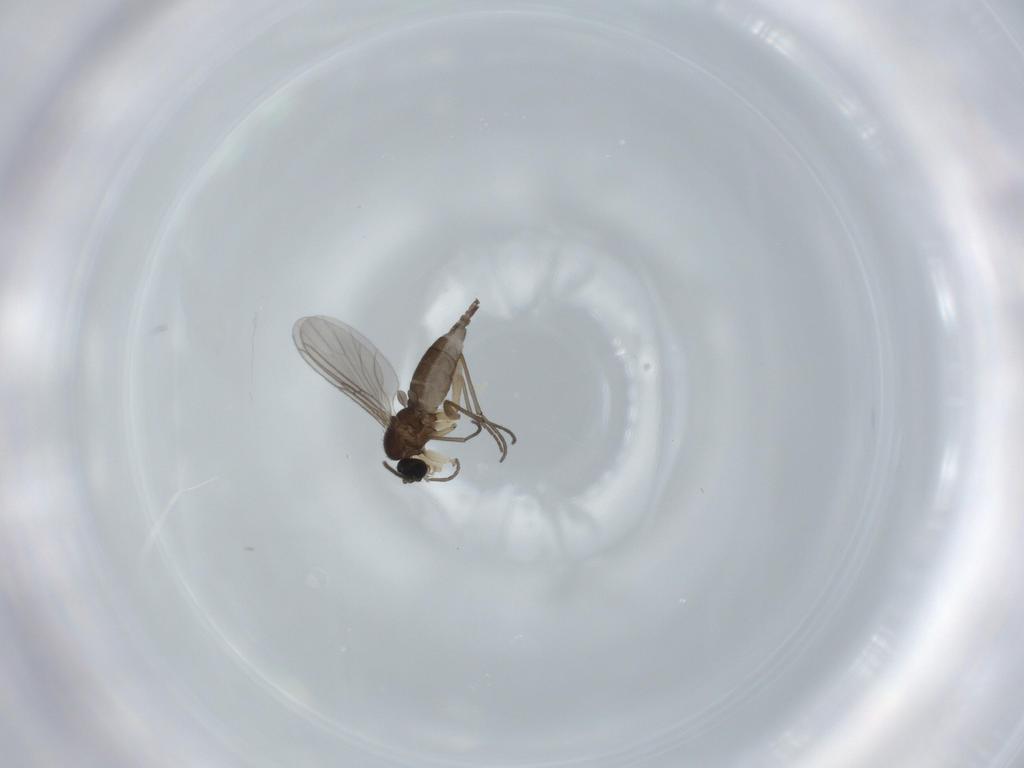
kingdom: Animalia
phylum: Arthropoda
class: Insecta
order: Diptera
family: Sciaridae
